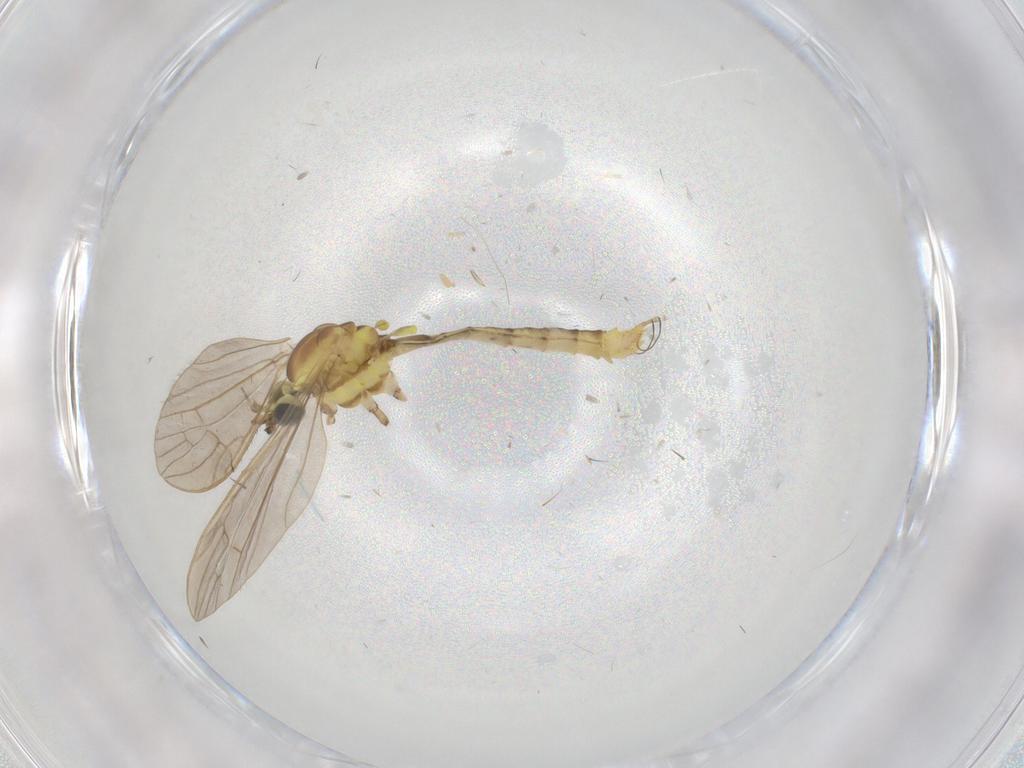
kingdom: Animalia
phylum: Arthropoda
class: Insecta
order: Diptera
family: Limoniidae
